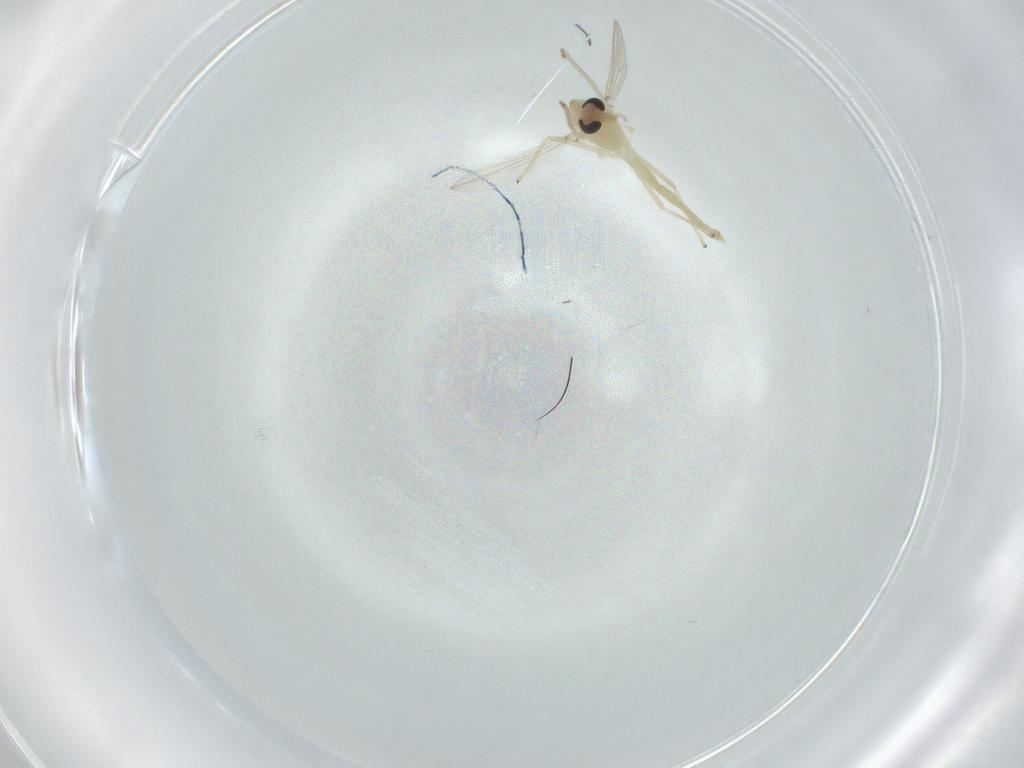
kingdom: Animalia
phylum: Arthropoda
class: Insecta
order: Diptera
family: Chironomidae
